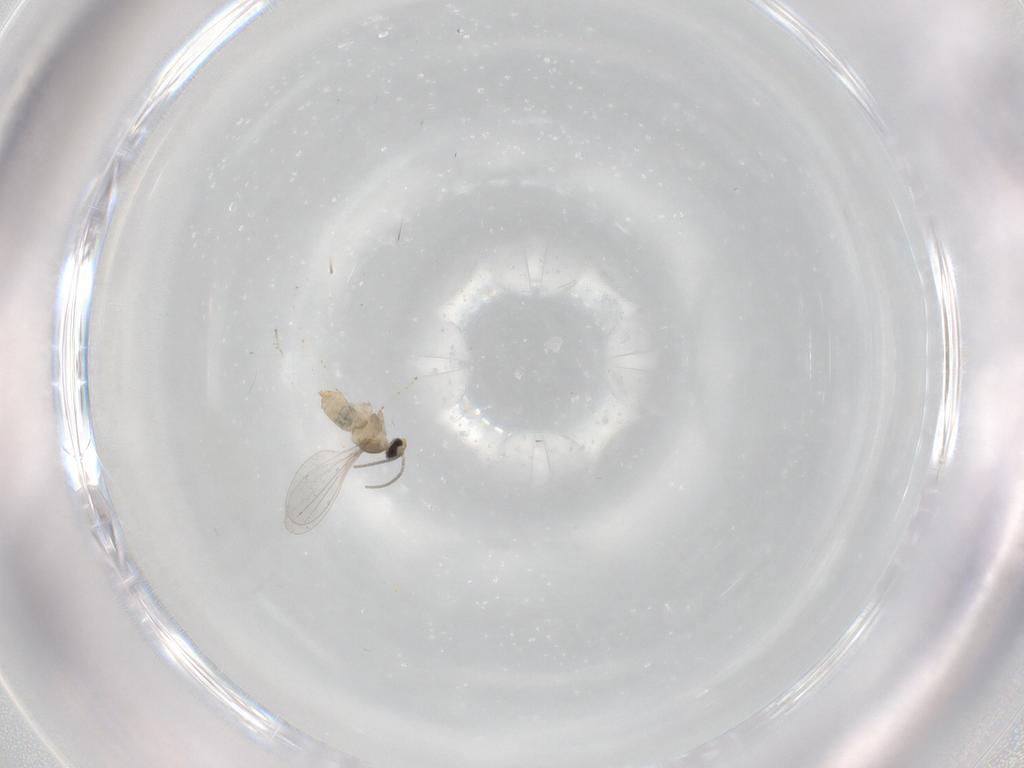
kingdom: Animalia
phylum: Arthropoda
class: Insecta
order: Diptera
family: Cecidomyiidae
